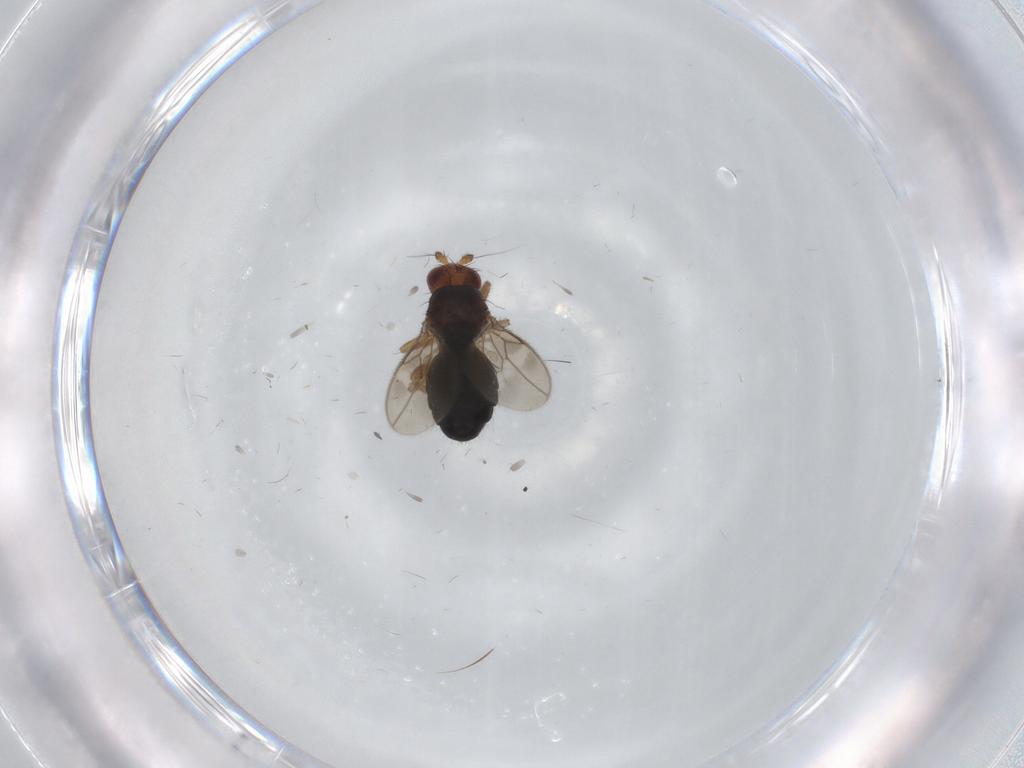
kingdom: Animalia
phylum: Arthropoda
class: Insecta
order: Diptera
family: Sphaeroceridae
